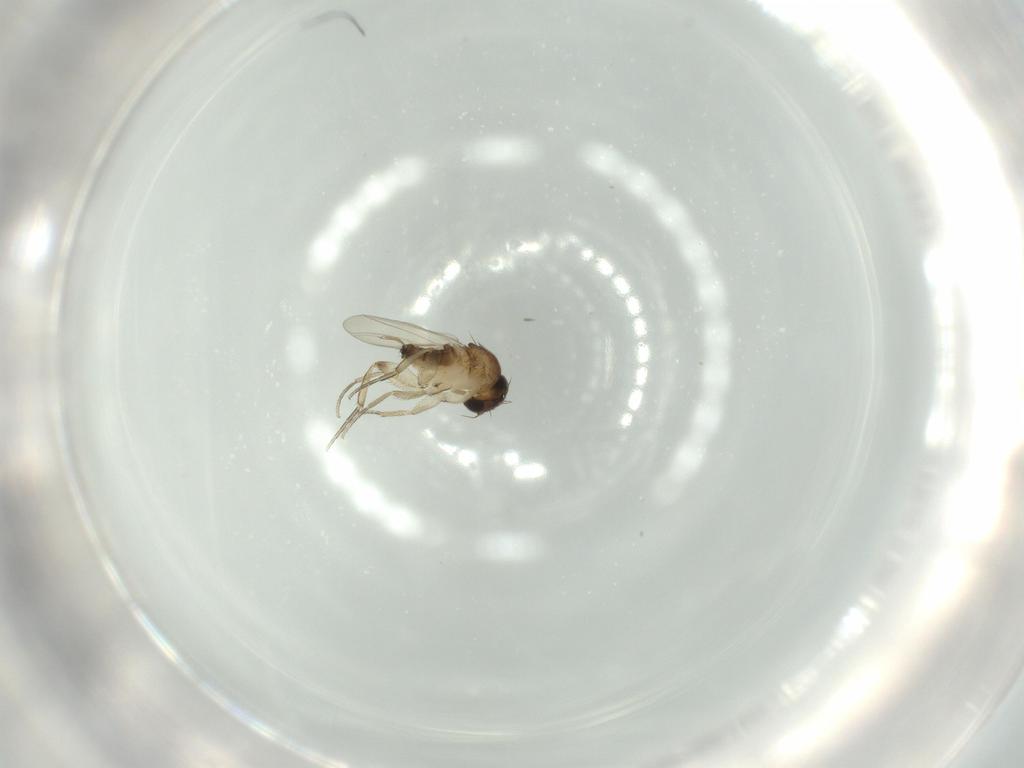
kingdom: Animalia
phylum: Arthropoda
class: Insecta
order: Diptera
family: Phoridae
